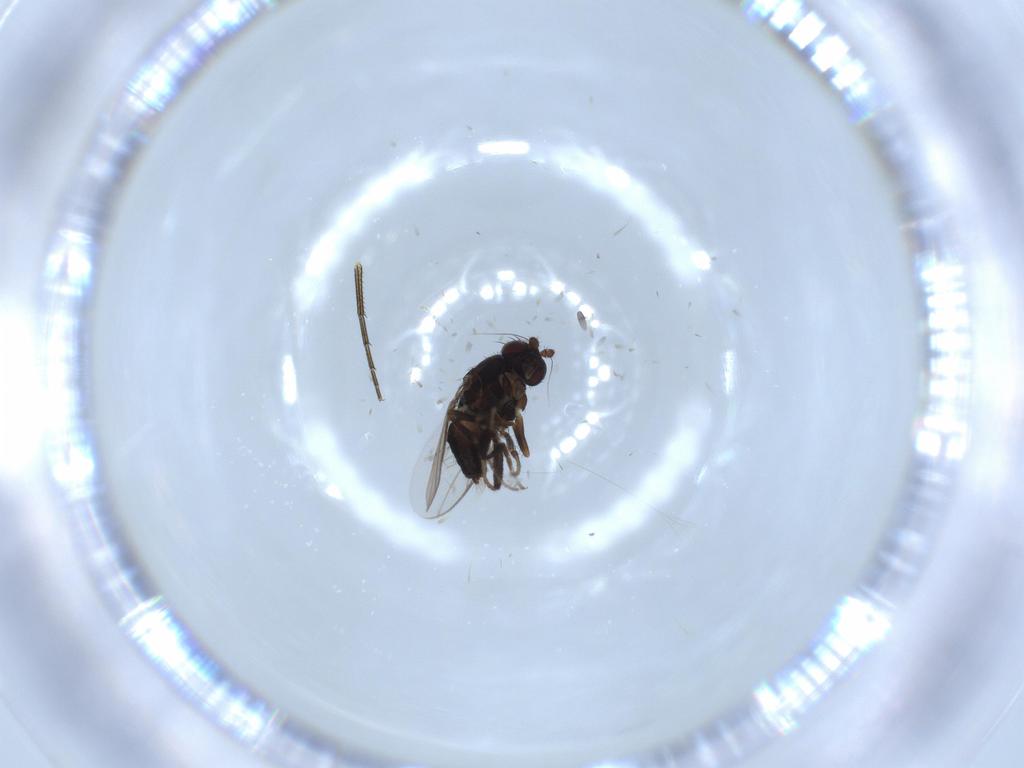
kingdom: Animalia
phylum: Arthropoda
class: Insecta
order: Diptera
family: Sphaeroceridae
